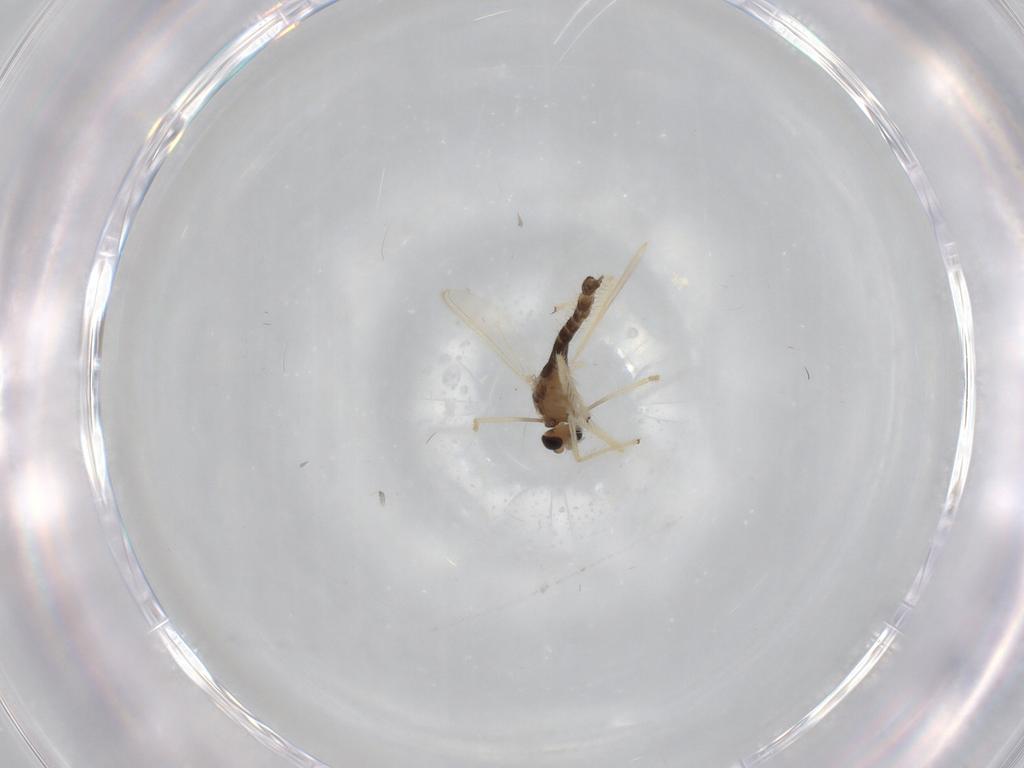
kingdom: Animalia
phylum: Arthropoda
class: Insecta
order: Diptera
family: Chironomidae
